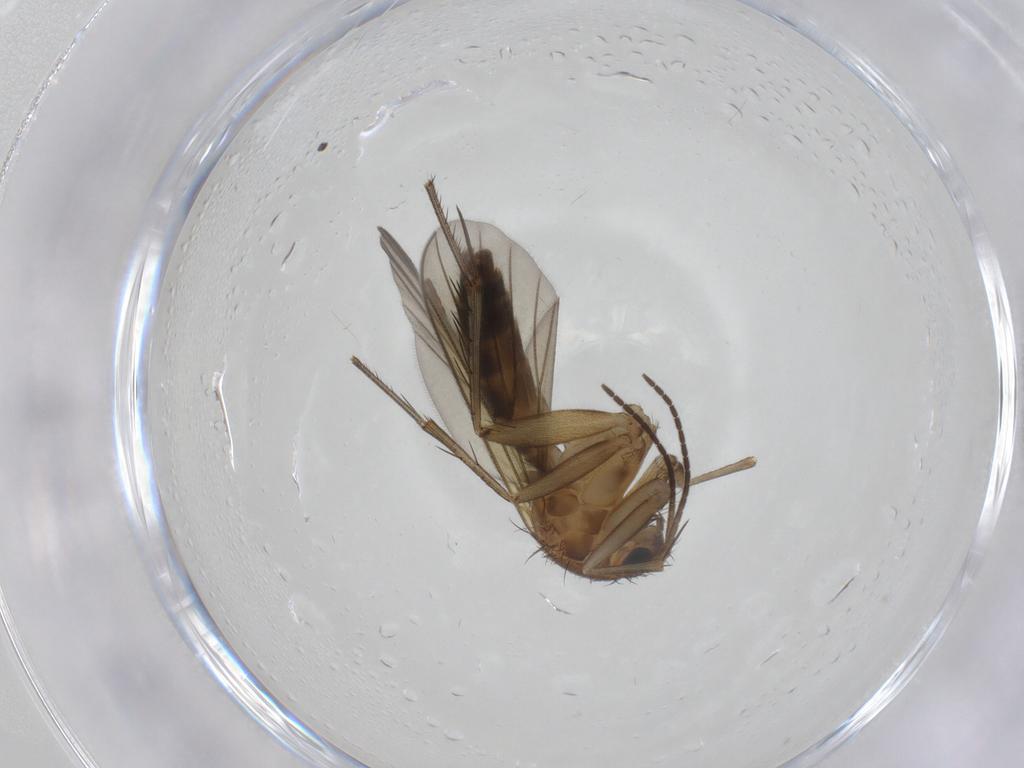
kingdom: Animalia
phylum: Arthropoda
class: Insecta
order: Diptera
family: Mycetophilidae
